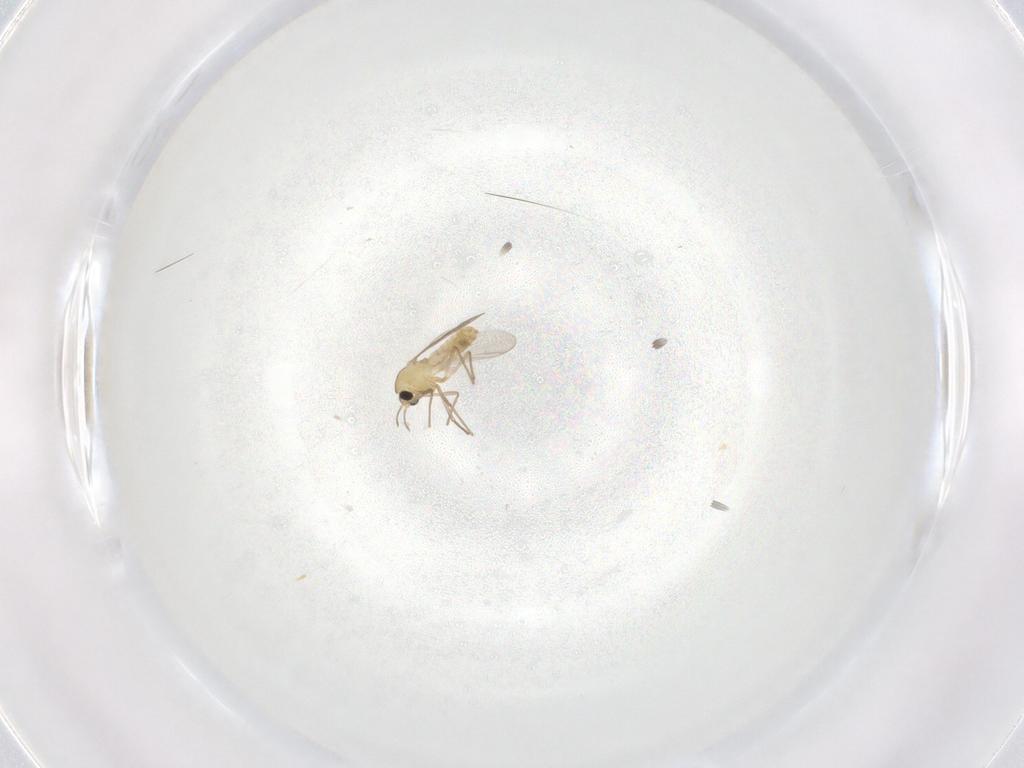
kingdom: Animalia
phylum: Arthropoda
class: Insecta
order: Diptera
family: Chironomidae
